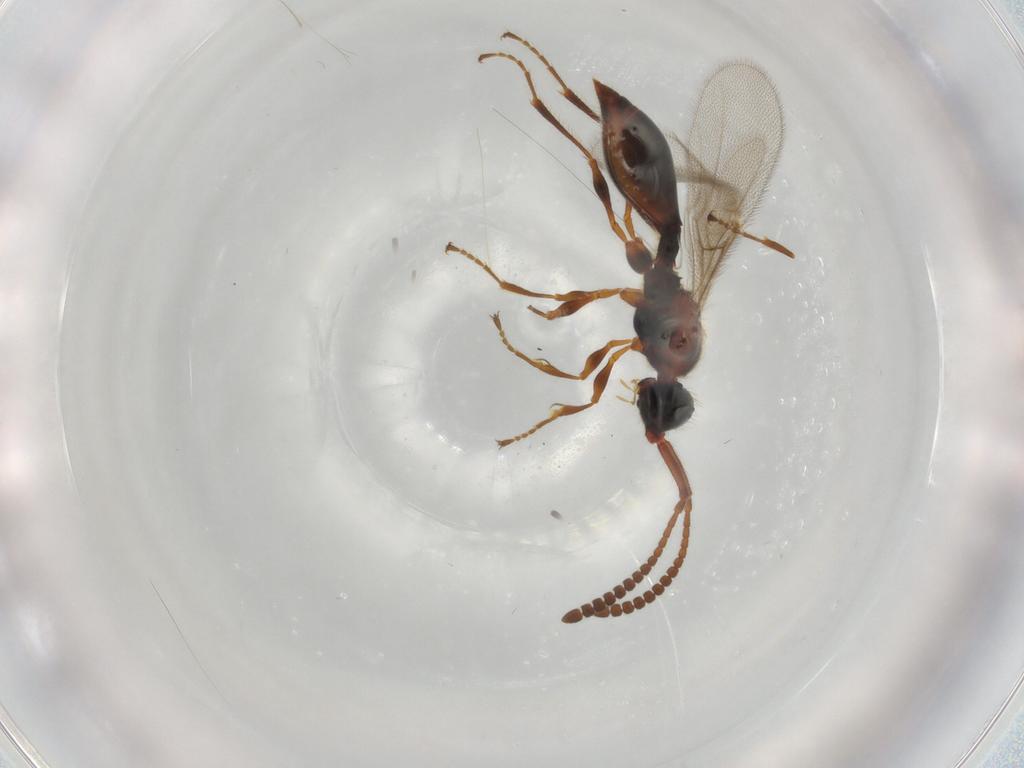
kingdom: Animalia
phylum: Arthropoda
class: Insecta
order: Hymenoptera
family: Diapriidae
